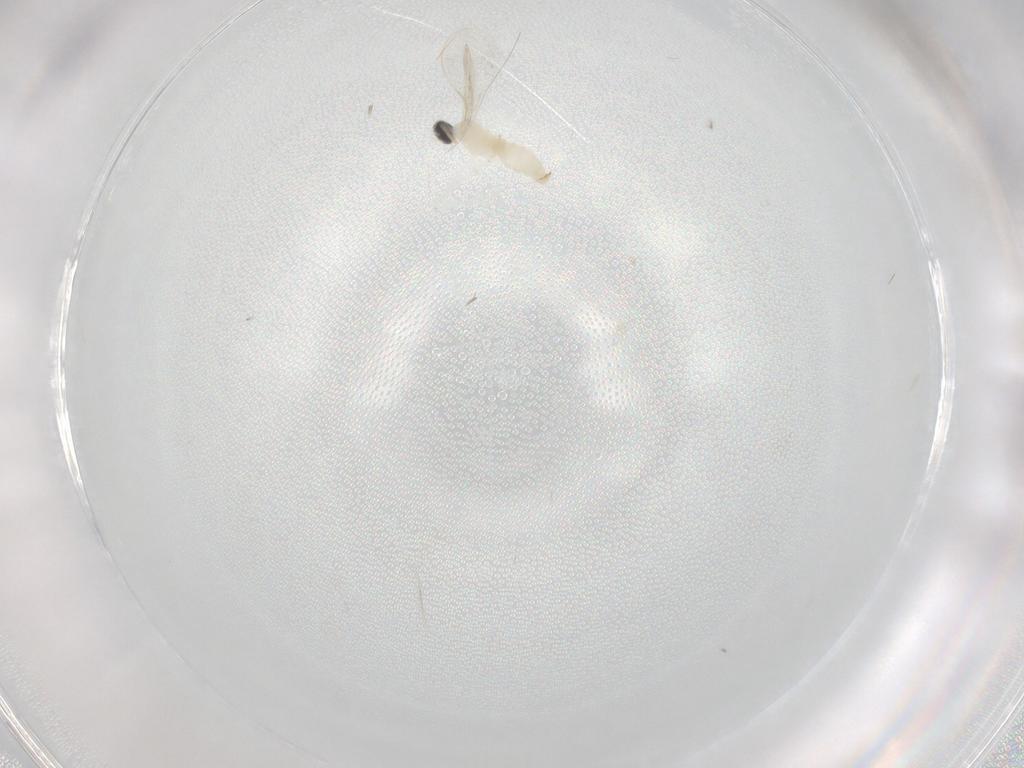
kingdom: Animalia
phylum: Arthropoda
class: Insecta
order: Diptera
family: Cecidomyiidae
